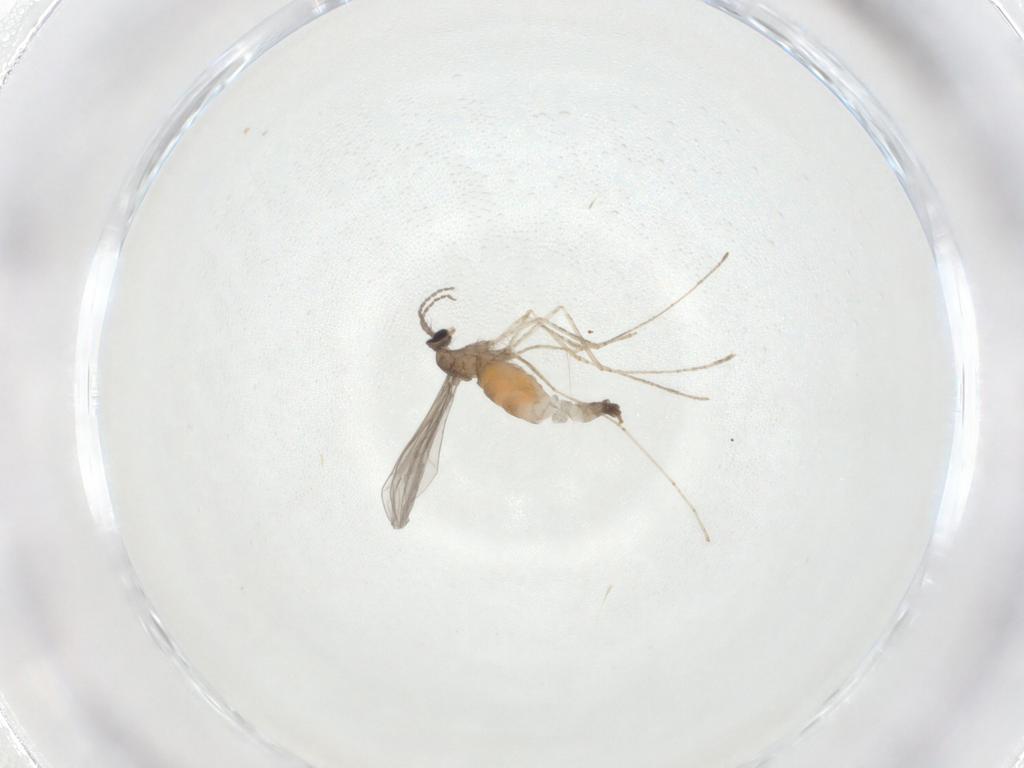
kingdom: Animalia
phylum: Arthropoda
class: Insecta
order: Diptera
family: Cecidomyiidae
